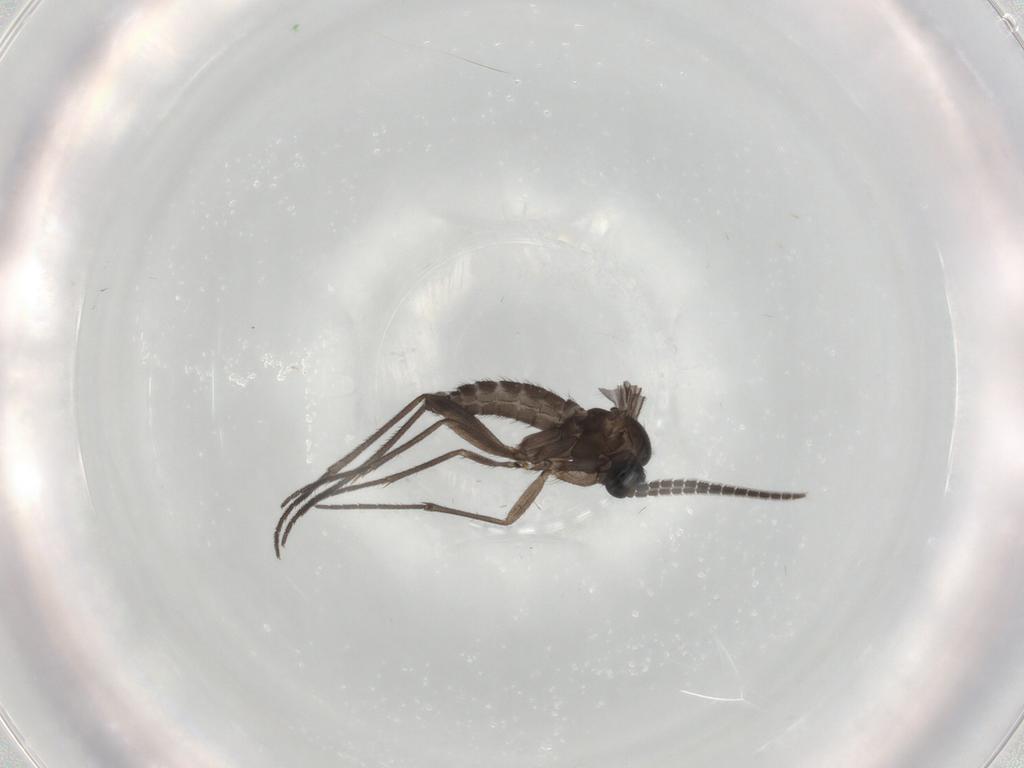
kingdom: Animalia
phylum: Arthropoda
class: Insecta
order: Diptera
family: Sciaridae
